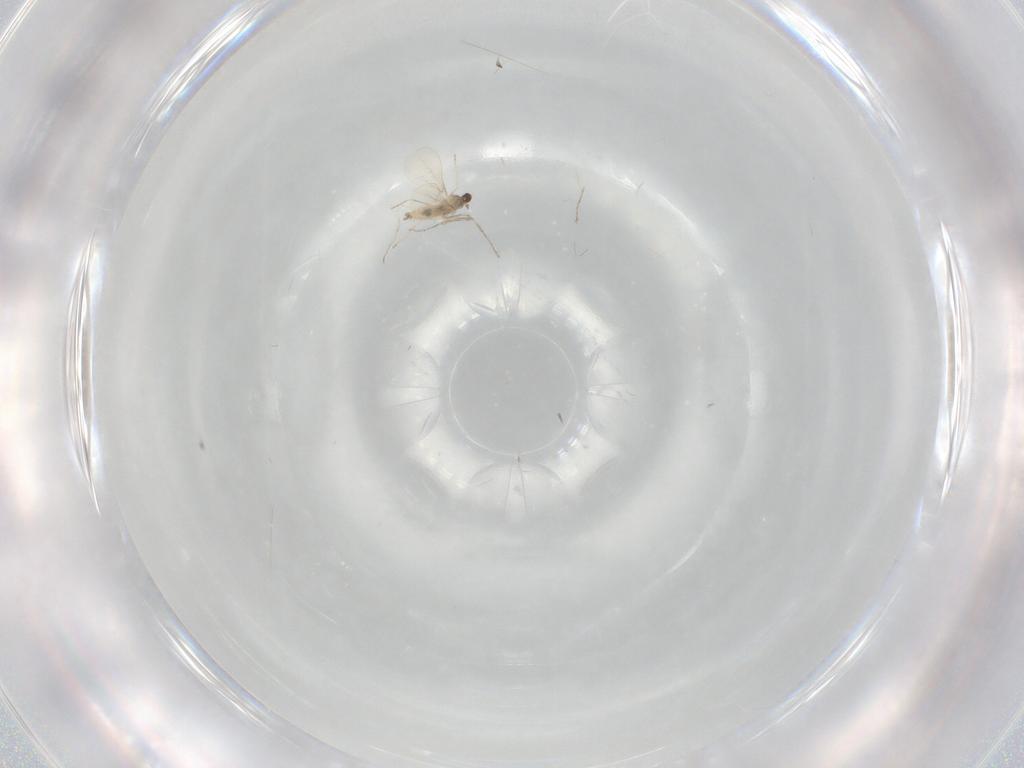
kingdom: Animalia
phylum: Arthropoda
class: Insecta
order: Diptera
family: Cecidomyiidae
